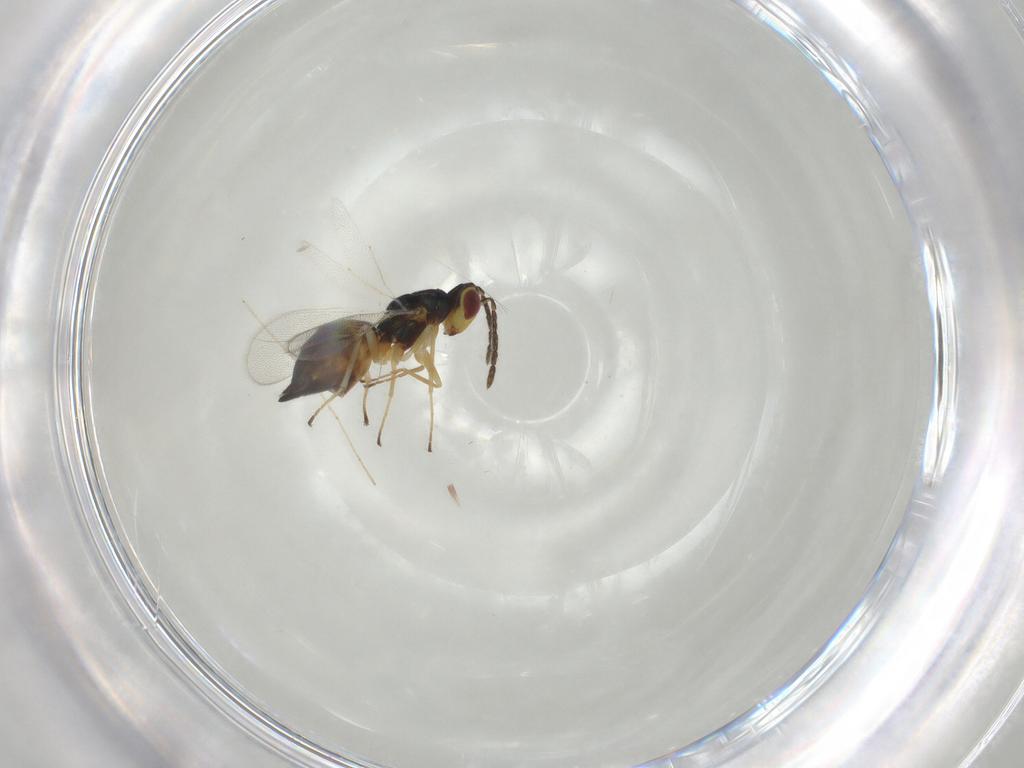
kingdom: Animalia
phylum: Arthropoda
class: Insecta
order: Hymenoptera
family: Eulophidae
